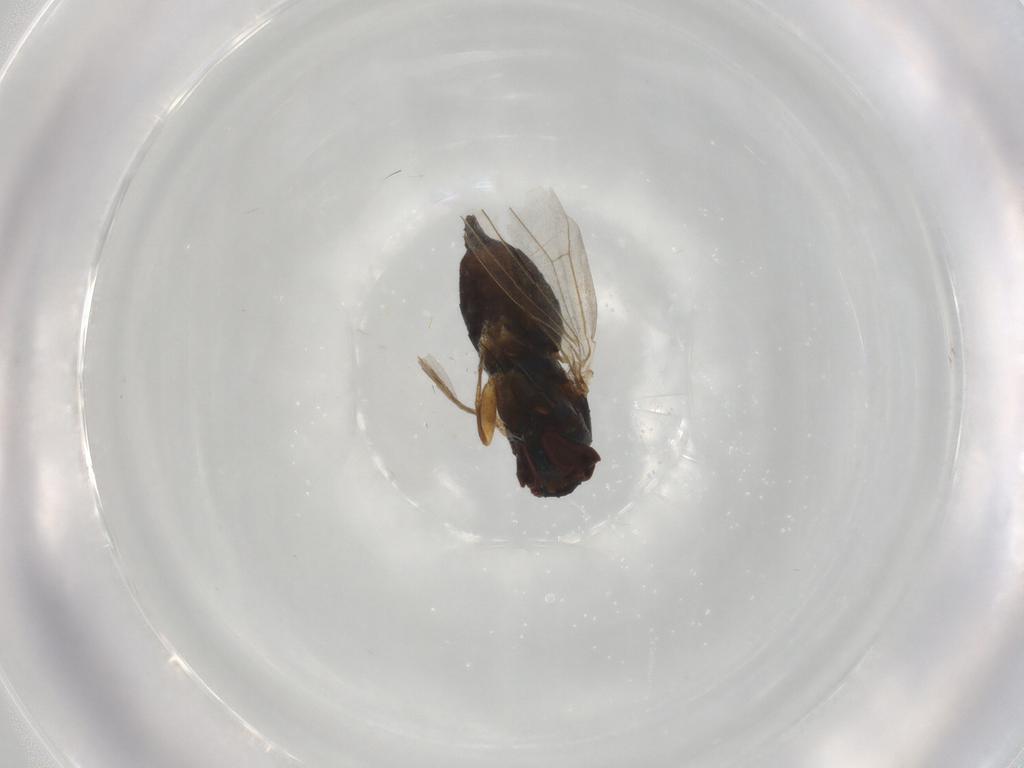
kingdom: Animalia
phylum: Arthropoda
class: Insecta
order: Diptera
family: Dolichopodidae
